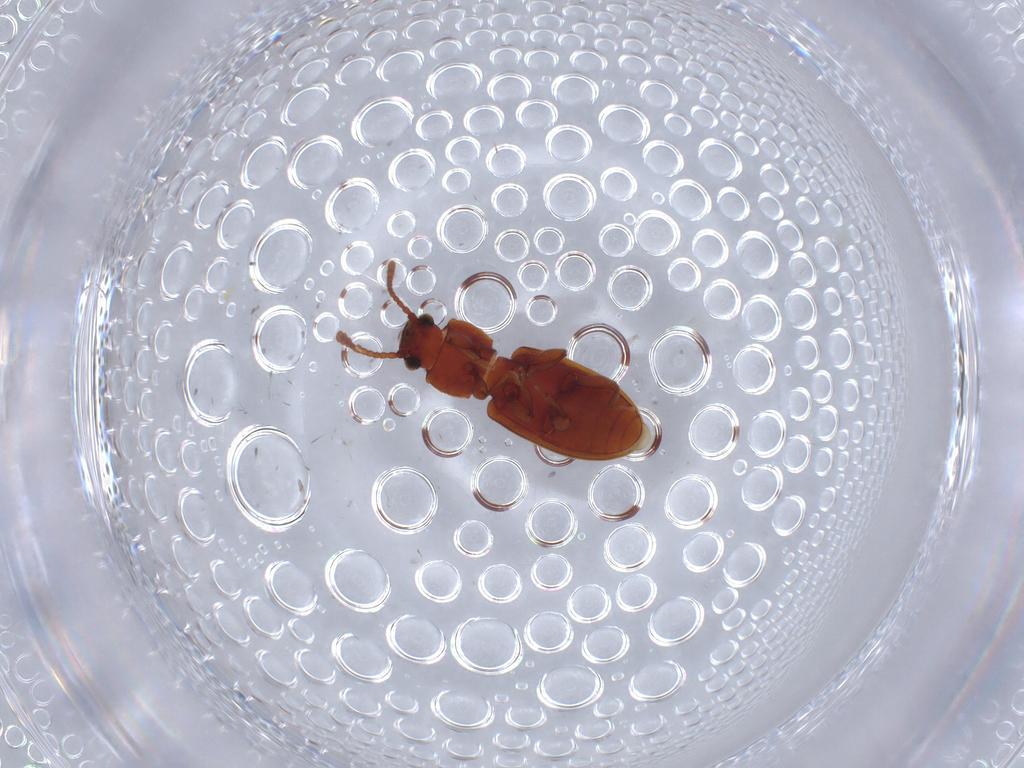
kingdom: Animalia
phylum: Arthropoda
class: Insecta
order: Coleoptera
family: Silvanidae
